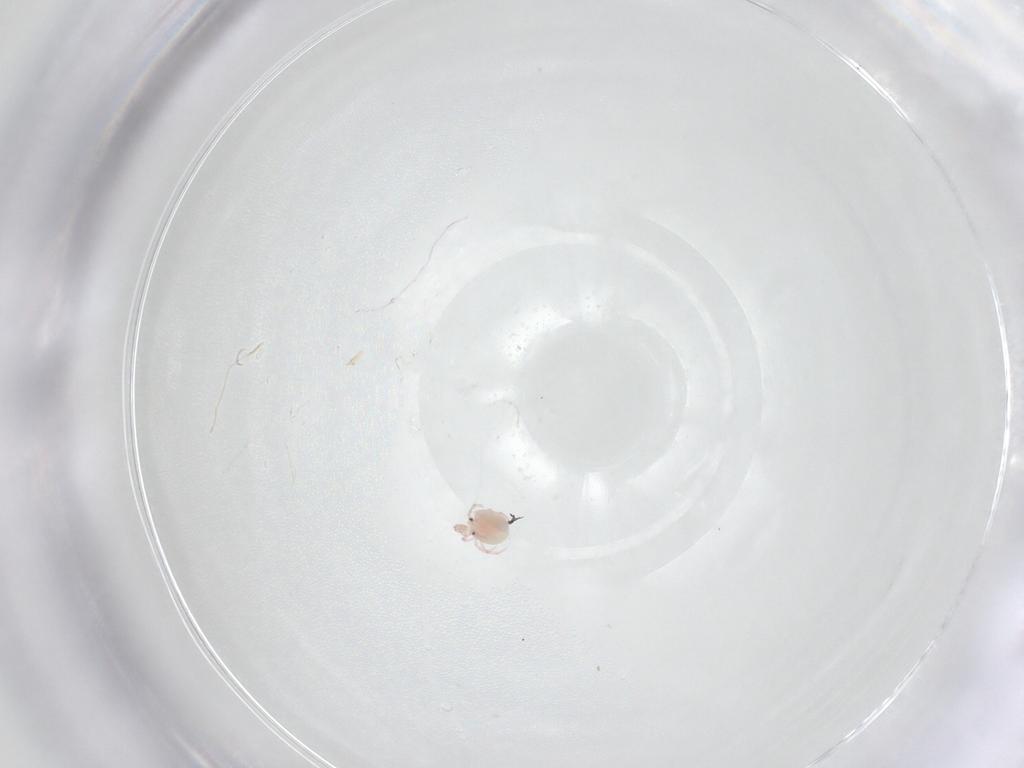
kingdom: Animalia
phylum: Arthropoda
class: Arachnida
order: Trombidiformes
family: Pionidae
